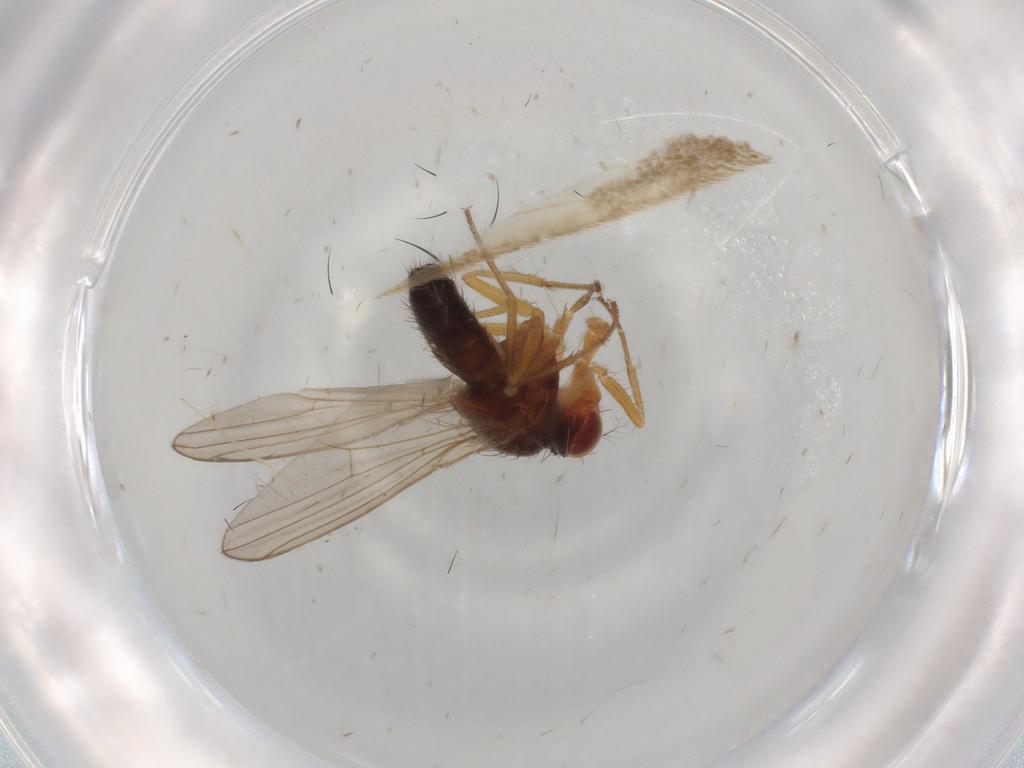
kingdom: Animalia
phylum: Arthropoda
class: Insecta
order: Diptera
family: Drosophilidae
